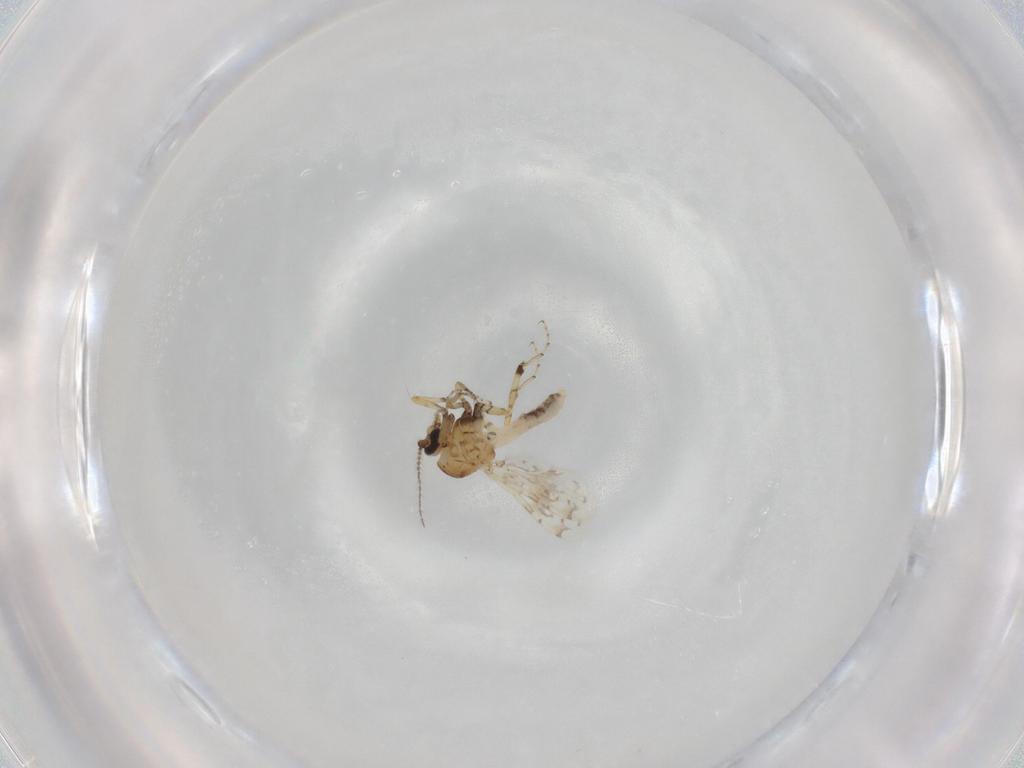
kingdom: Animalia
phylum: Arthropoda
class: Insecta
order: Diptera
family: Ceratopogonidae
